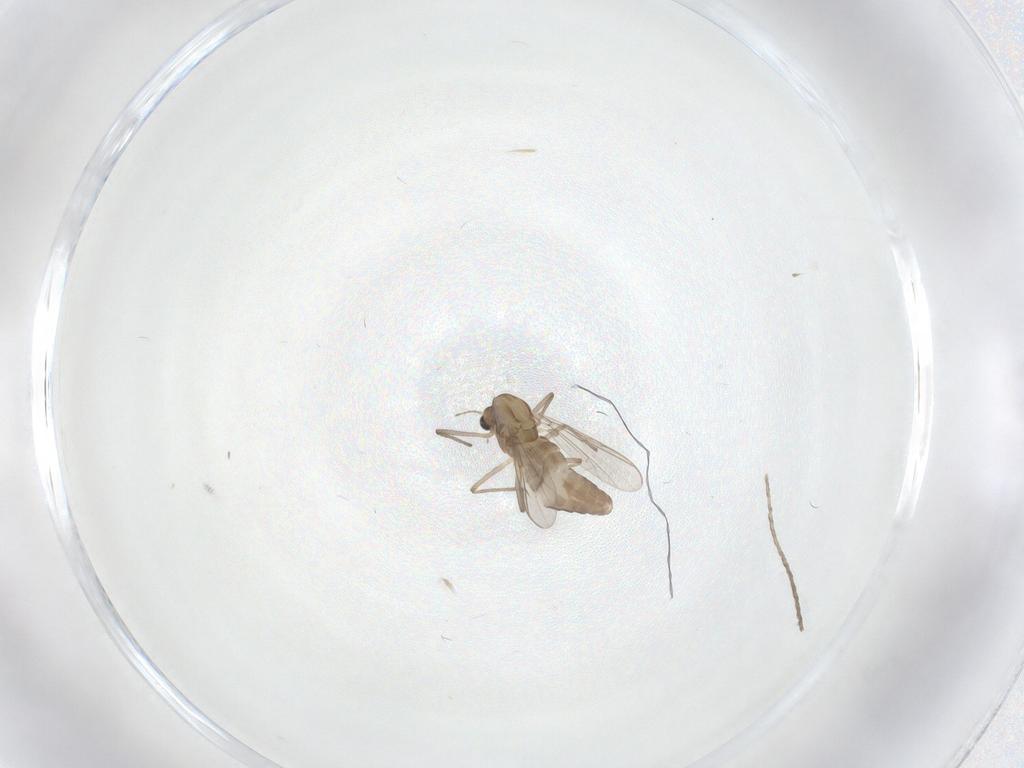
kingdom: Animalia
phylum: Arthropoda
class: Insecta
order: Diptera
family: Chironomidae
